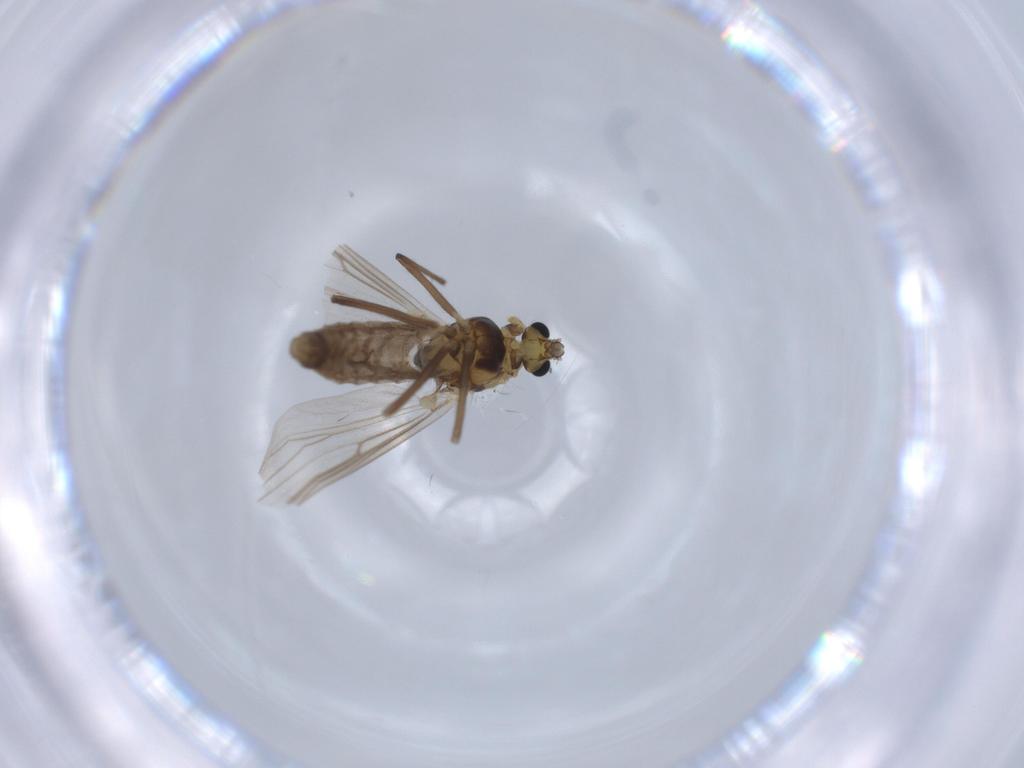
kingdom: Animalia
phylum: Arthropoda
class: Insecta
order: Diptera
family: Chironomidae
